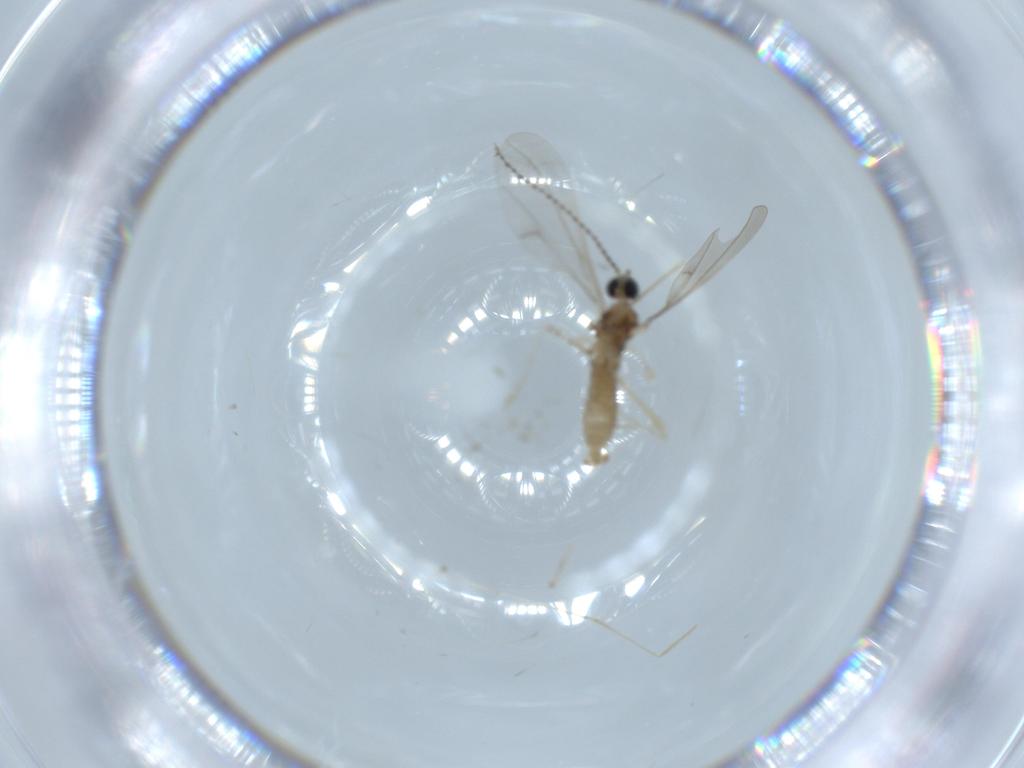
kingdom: Animalia
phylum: Arthropoda
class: Insecta
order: Diptera
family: Cecidomyiidae
